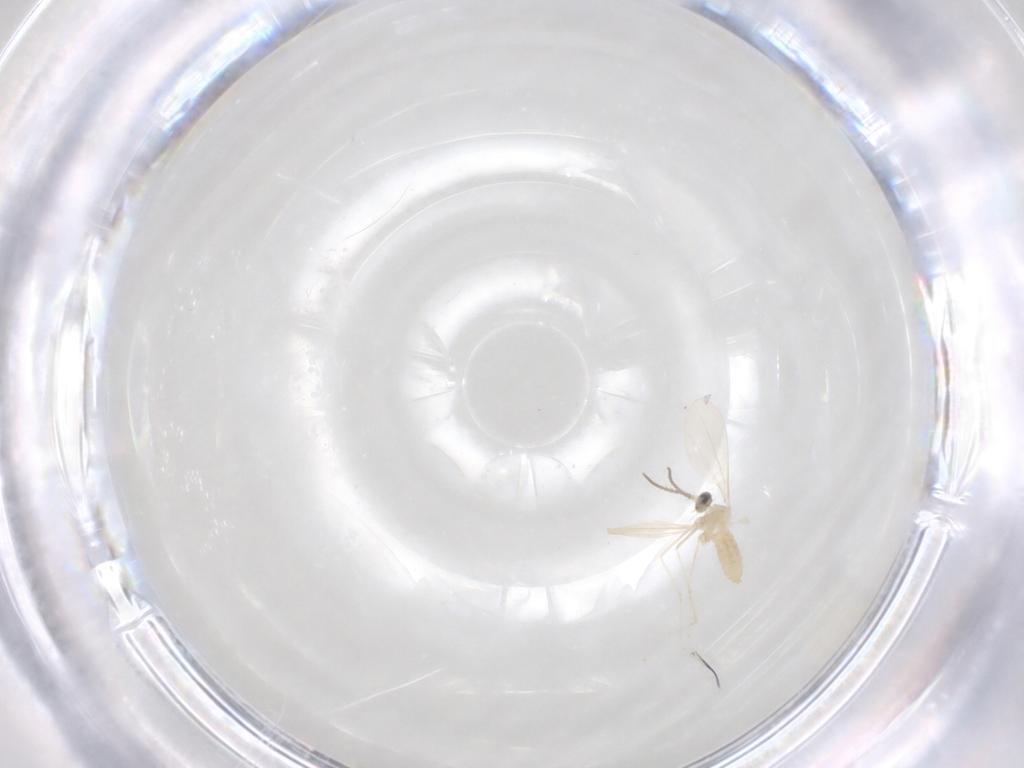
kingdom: Animalia
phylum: Arthropoda
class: Insecta
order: Diptera
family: Cecidomyiidae
